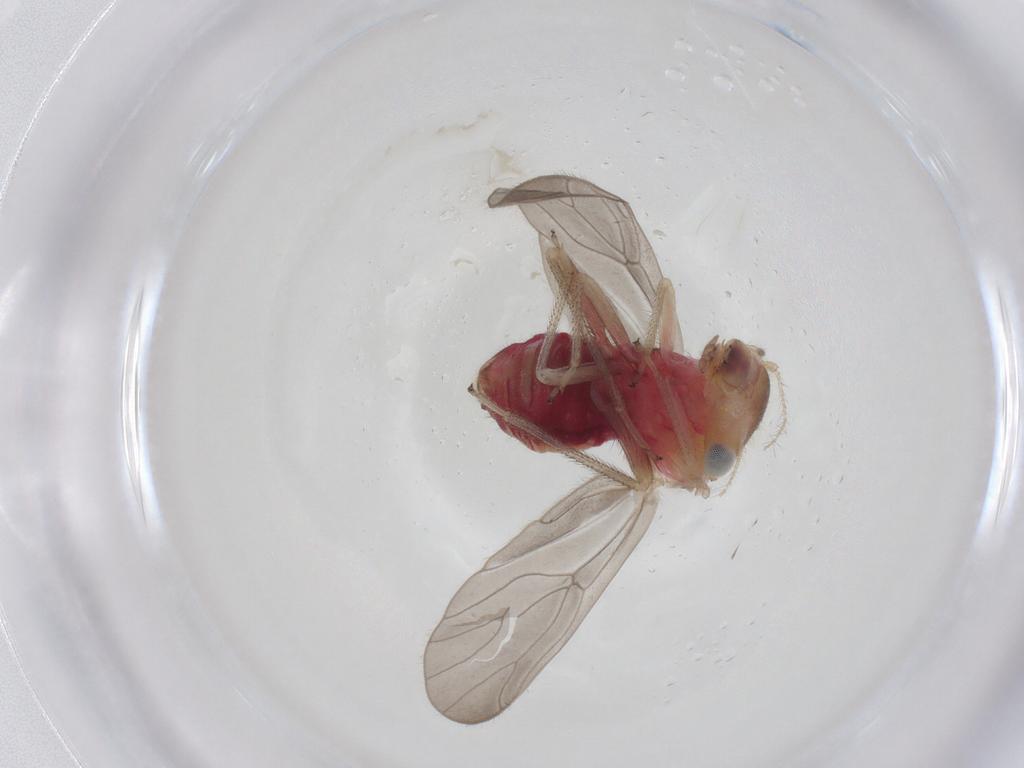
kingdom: Animalia
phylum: Arthropoda
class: Insecta
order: Psocodea
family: Pseudocaeciliidae
